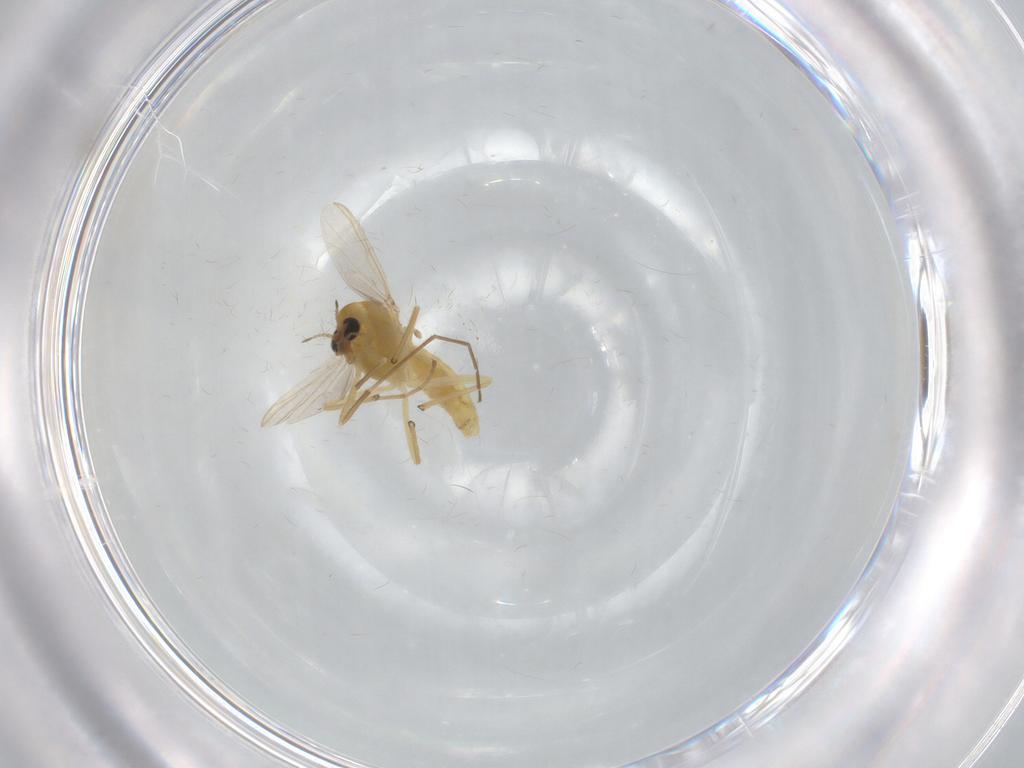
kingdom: Animalia
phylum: Arthropoda
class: Insecta
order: Diptera
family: Chironomidae
